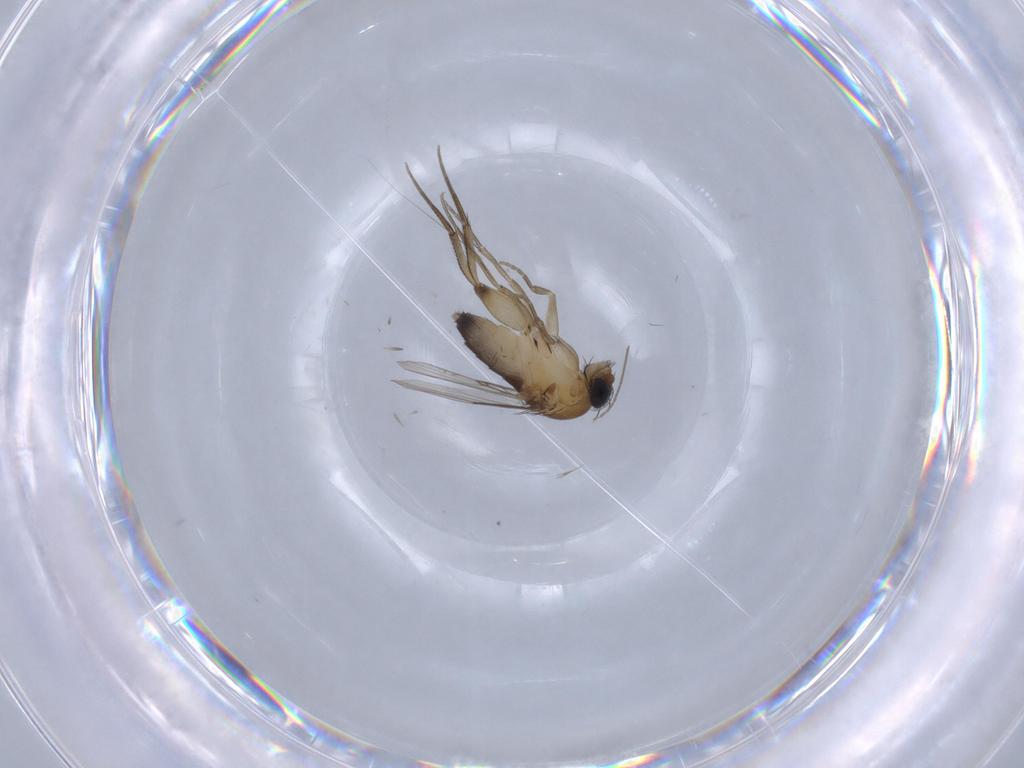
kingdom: Animalia
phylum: Arthropoda
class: Insecta
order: Diptera
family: Phoridae
